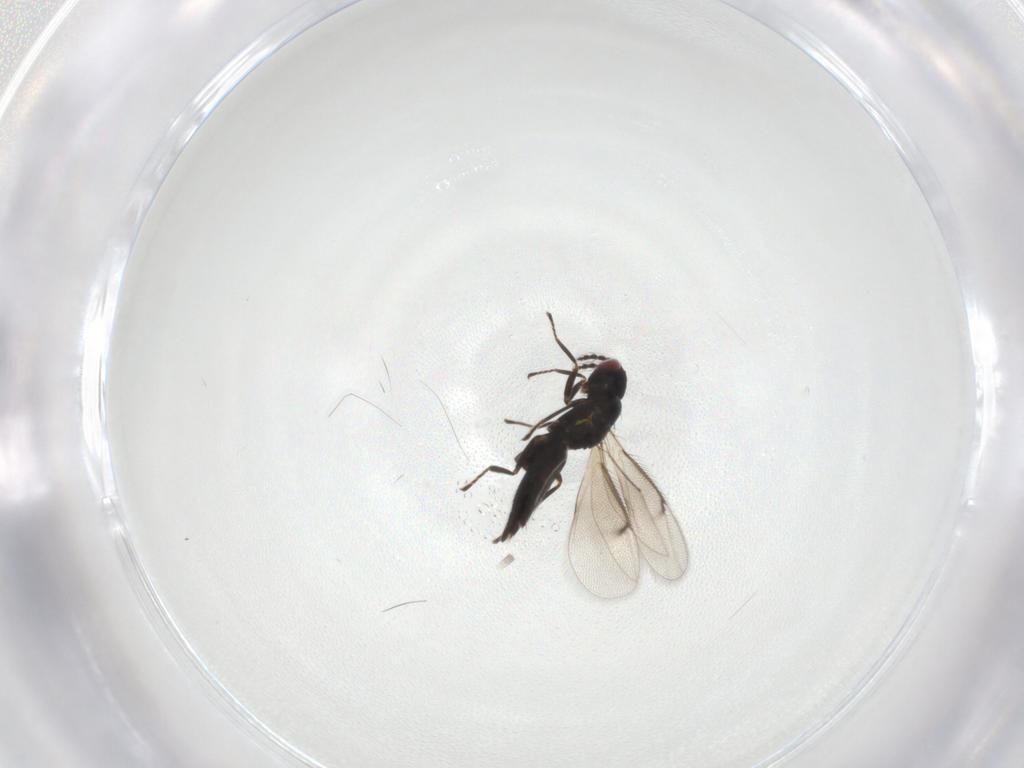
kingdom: Animalia
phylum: Arthropoda
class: Insecta
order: Hymenoptera
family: Eulophidae
